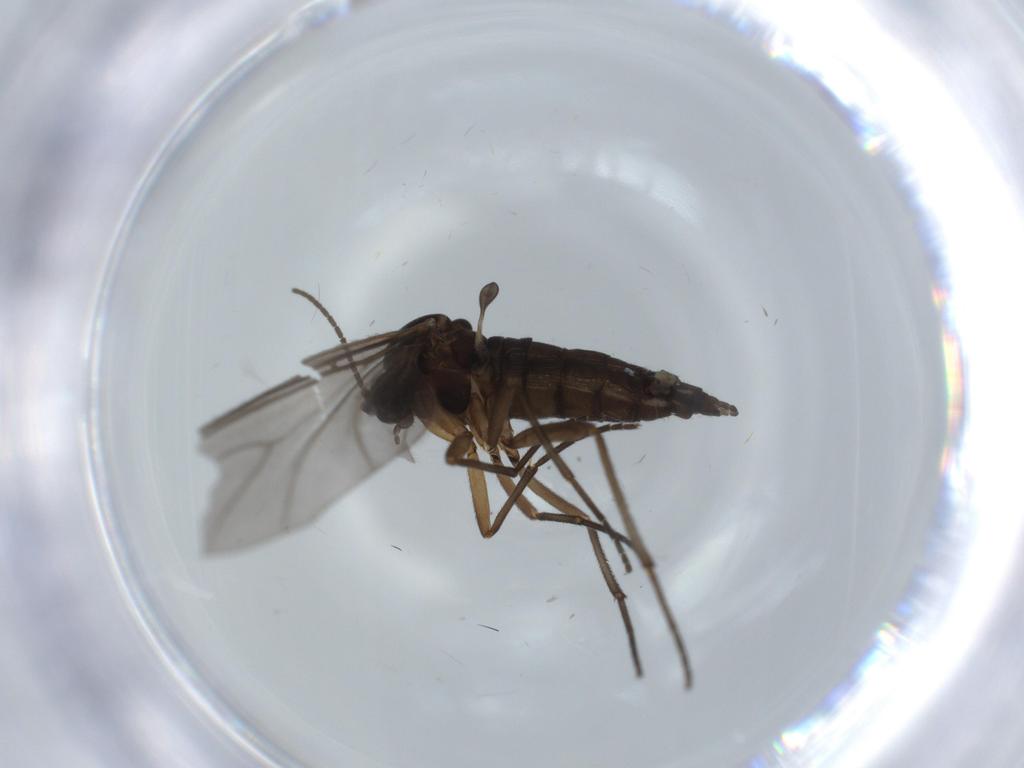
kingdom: Animalia
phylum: Arthropoda
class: Insecta
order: Diptera
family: Sciaridae
